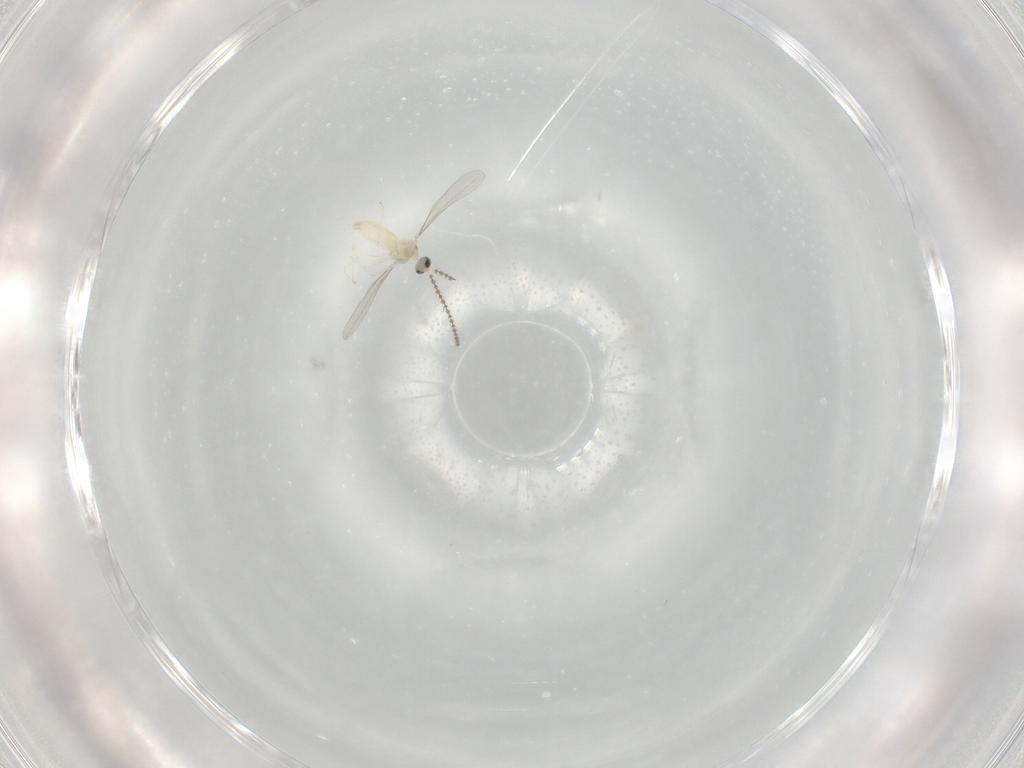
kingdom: Animalia
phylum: Arthropoda
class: Insecta
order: Diptera
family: Cecidomyiidae
